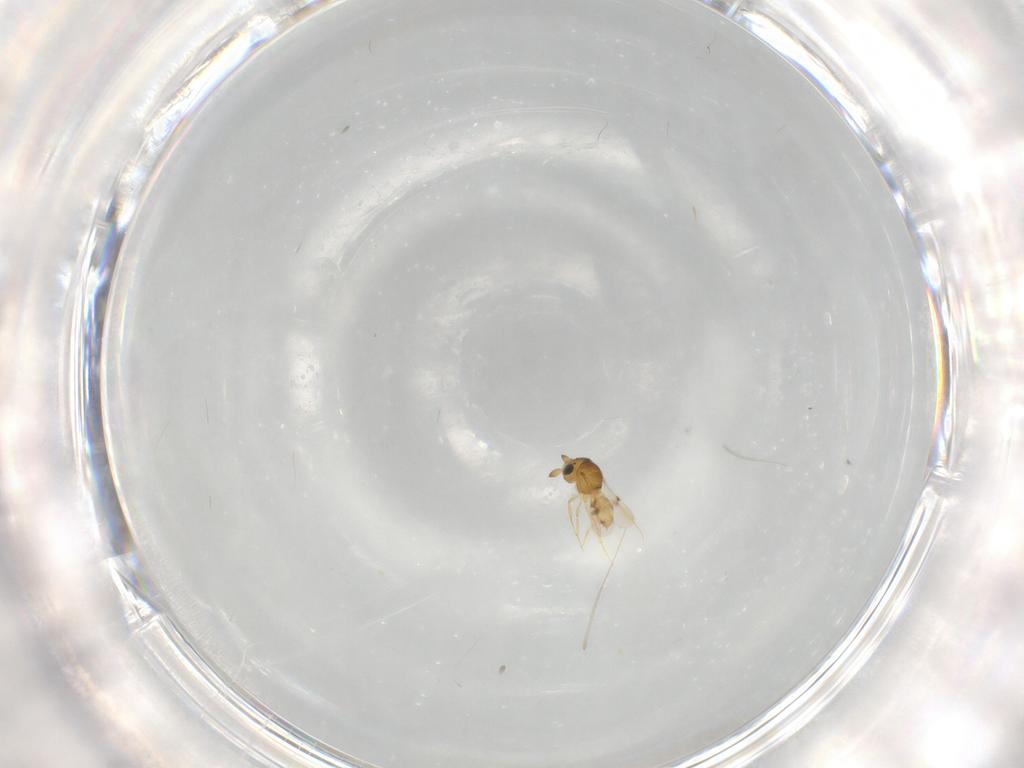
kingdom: Animalia
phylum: Arthropoda
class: Insecta
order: Hymenoptera
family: Scelionidae
